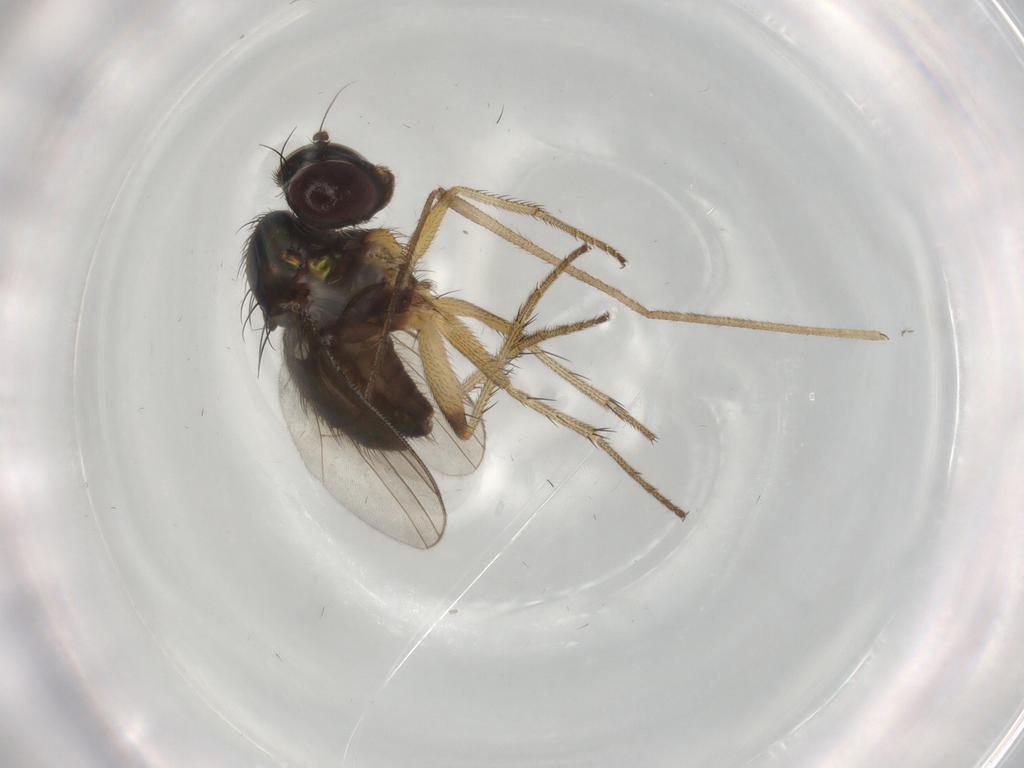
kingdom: Animalia
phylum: Arthropoda
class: Insecta
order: Diptera
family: Dolichopodidae
